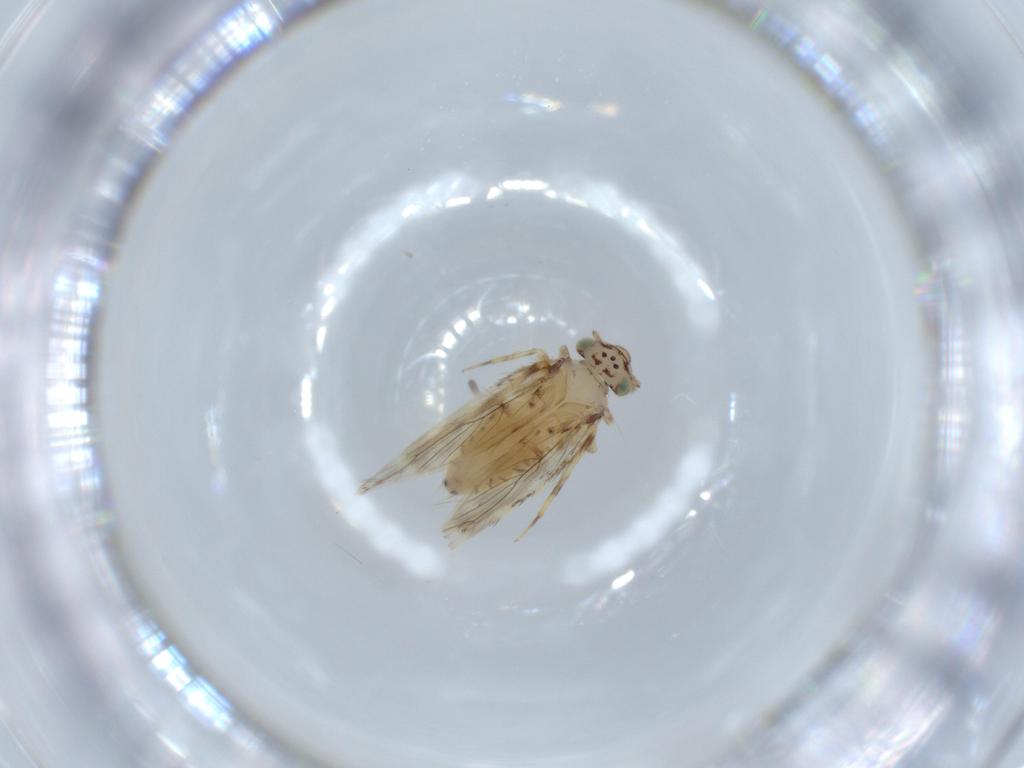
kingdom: Animalia
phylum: Arthropoda
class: Insecta
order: Psocodea
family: Lepidopsocidae
